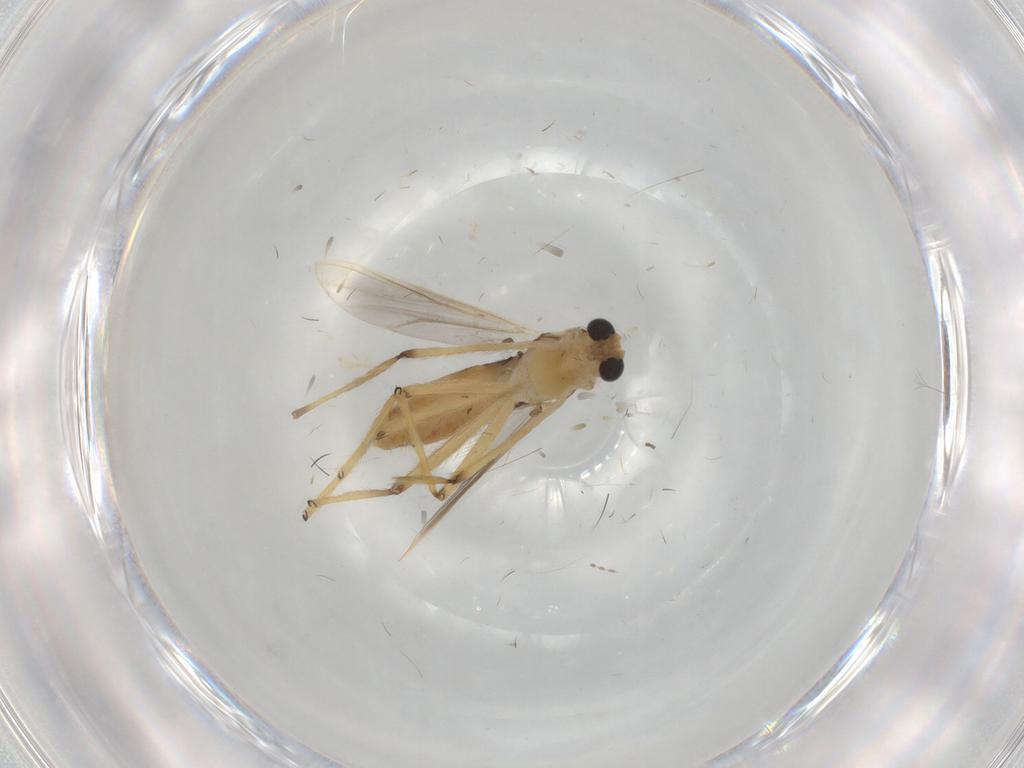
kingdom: Animalia
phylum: Arthropoda
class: Insecta
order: Diptera
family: Chironomidae
